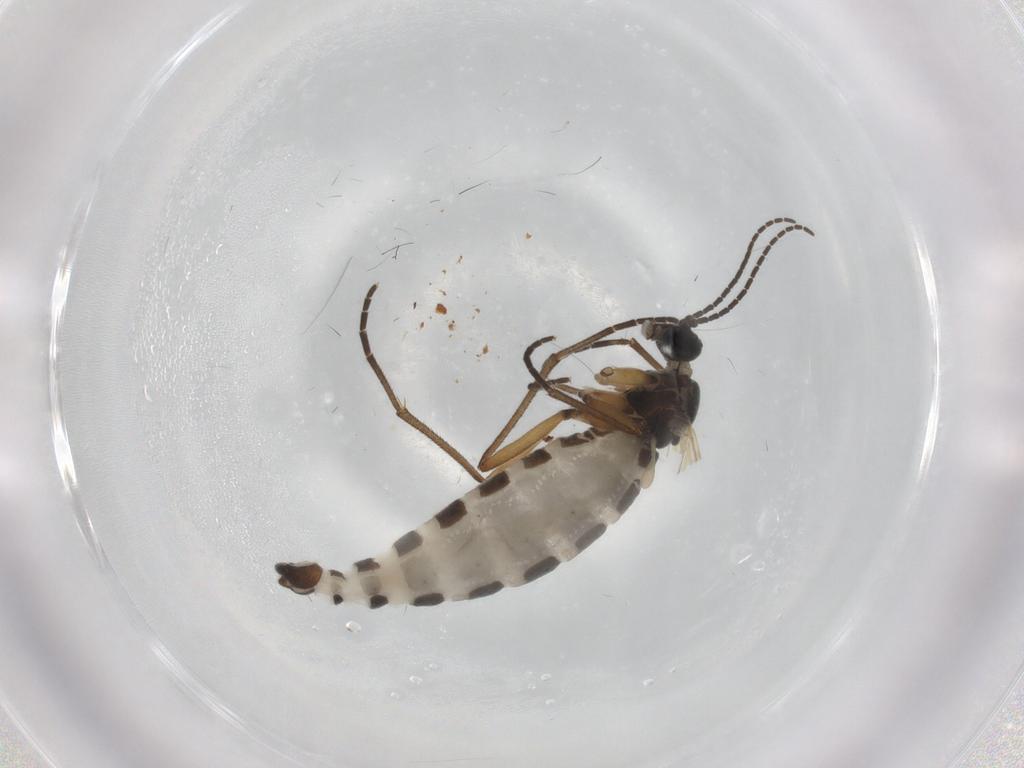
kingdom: Animalia
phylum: Arthropoda
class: Insecta
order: Diptera
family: Sciaridae
